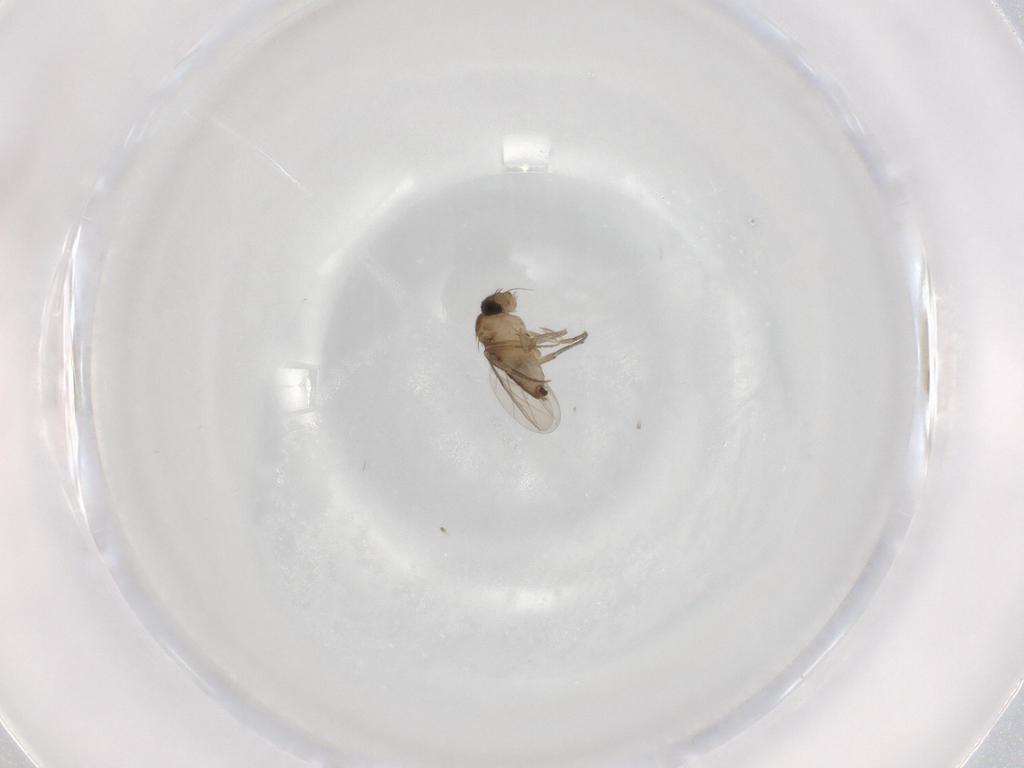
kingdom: Animalia
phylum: Arthropoda
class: Insecta
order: Diptera
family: Phoridae
